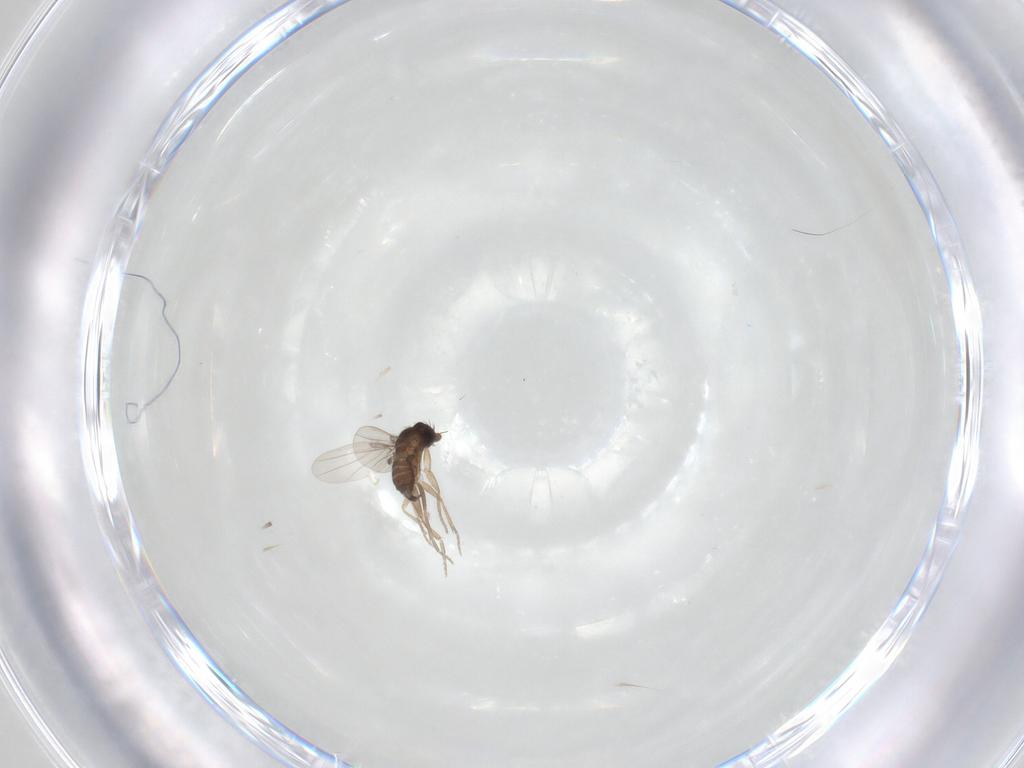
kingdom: Animalia
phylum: Arthropoda
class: Insecta
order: Diptera
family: Phoridae
